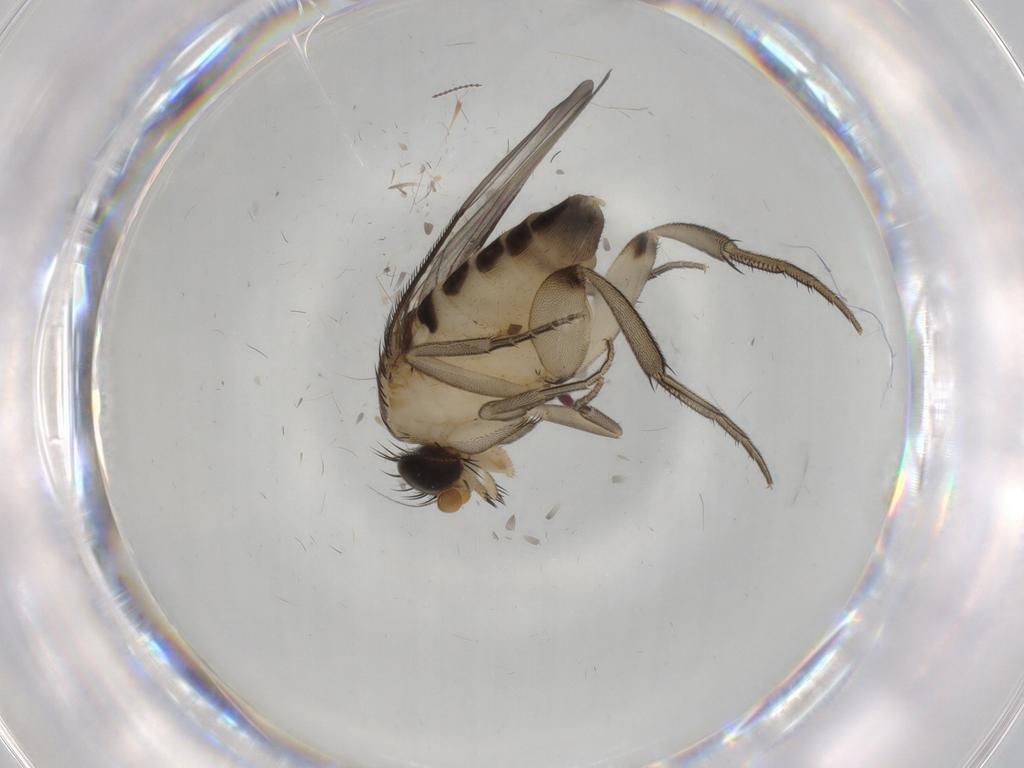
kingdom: Animalia
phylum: Arthropoda
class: Insecta
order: Diptera
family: Phoridae
